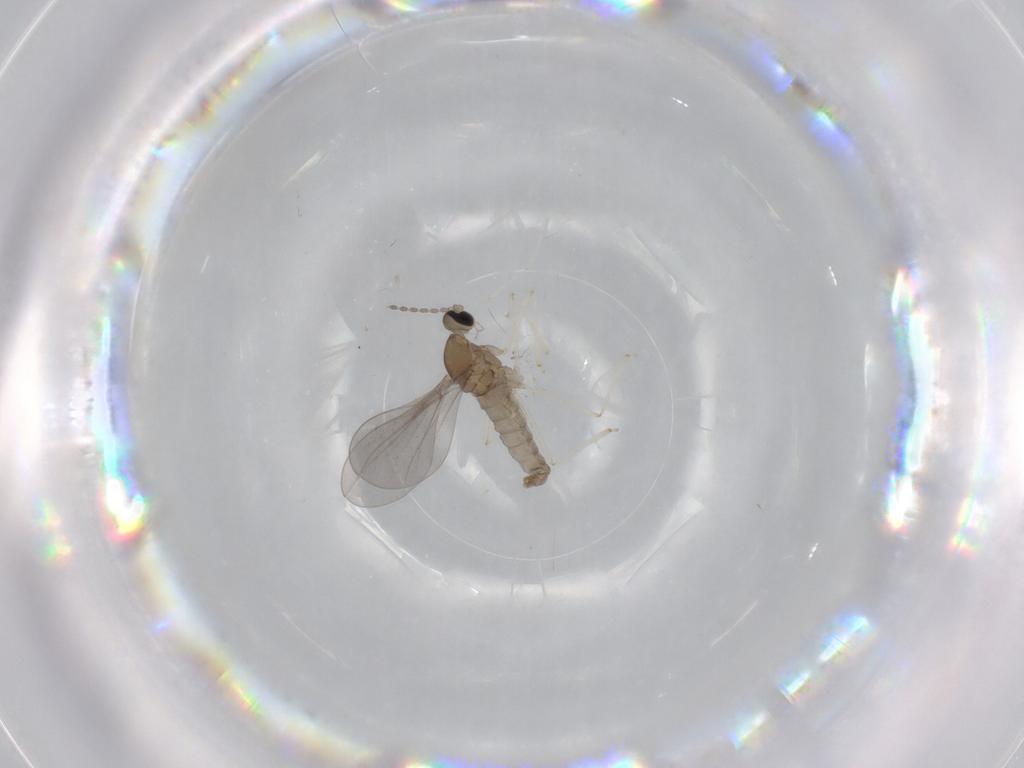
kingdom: Animalia
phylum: Arthropoda
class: Insecta
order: Diptera
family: Cecidomyiidae
